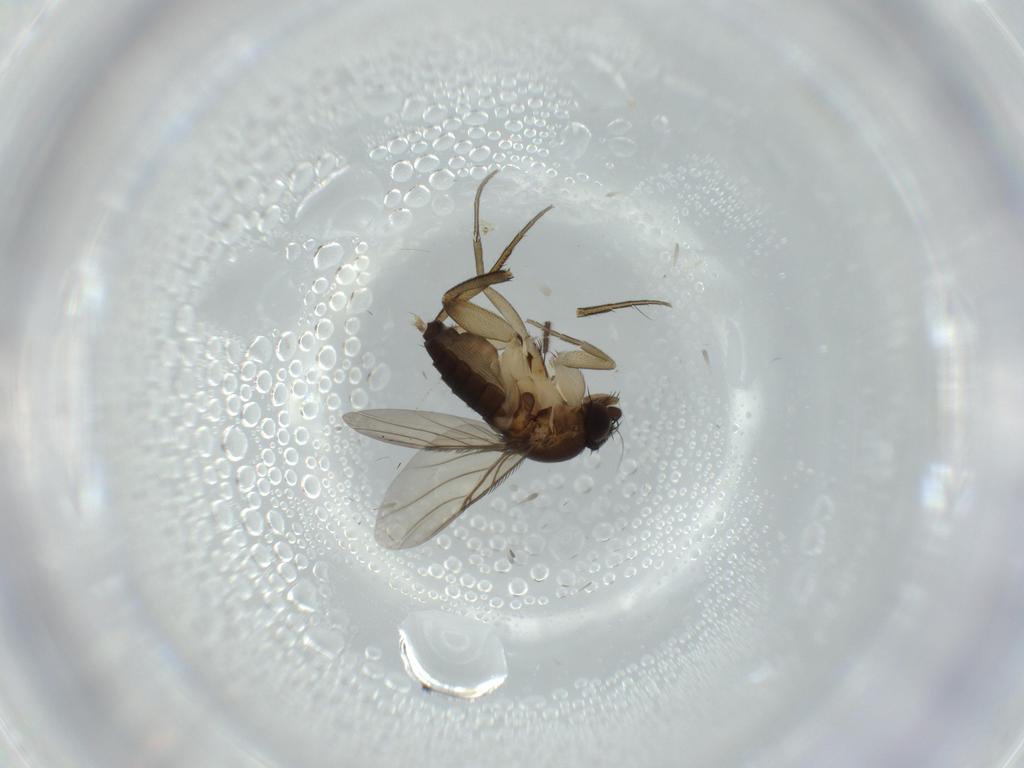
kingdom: Animalia
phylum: Arthropoda
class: Insecta
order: Diptera
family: Phoridae
